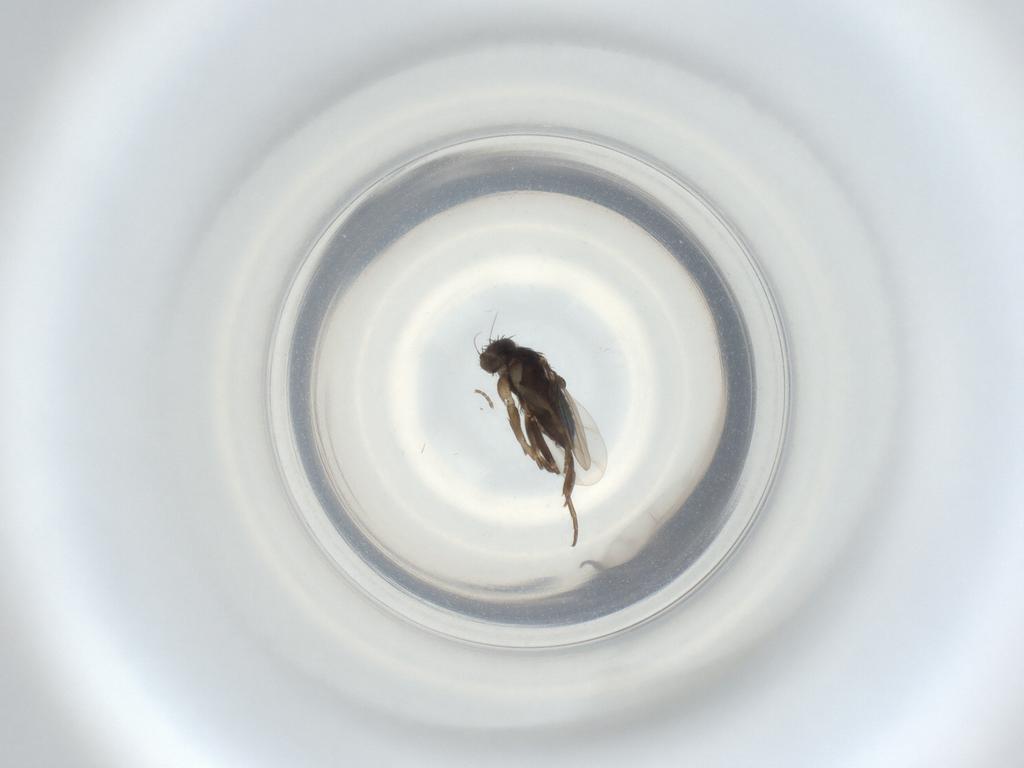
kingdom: Animalia
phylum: Arthropoda
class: Insecta
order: Diptera
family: Phoridae
